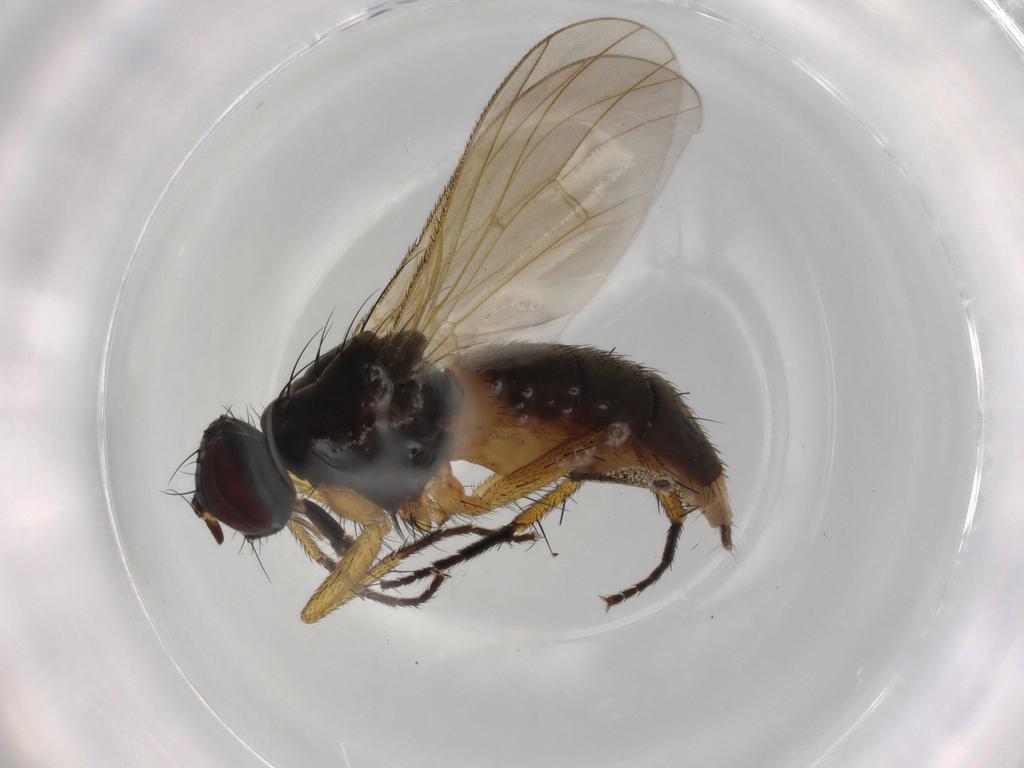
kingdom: Animalia
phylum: Arthropoda
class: Insecta
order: Diptera
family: Muscidae
